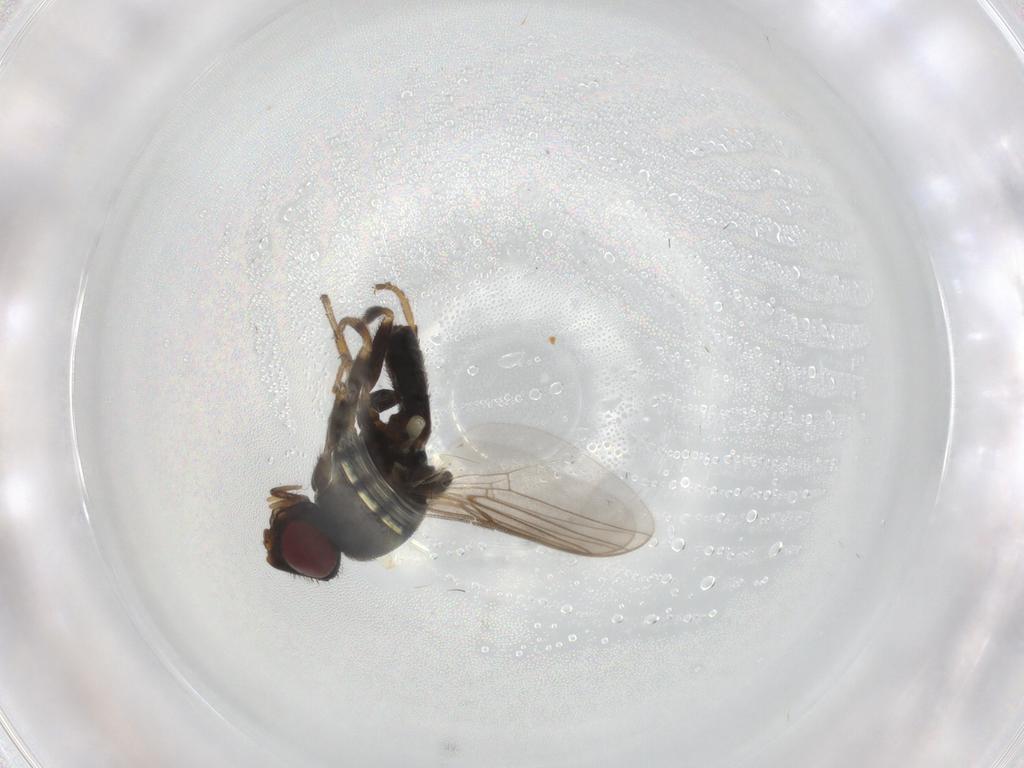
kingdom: Animalia
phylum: Arthropoda
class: Insecta
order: Diptera
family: Chloropidae
